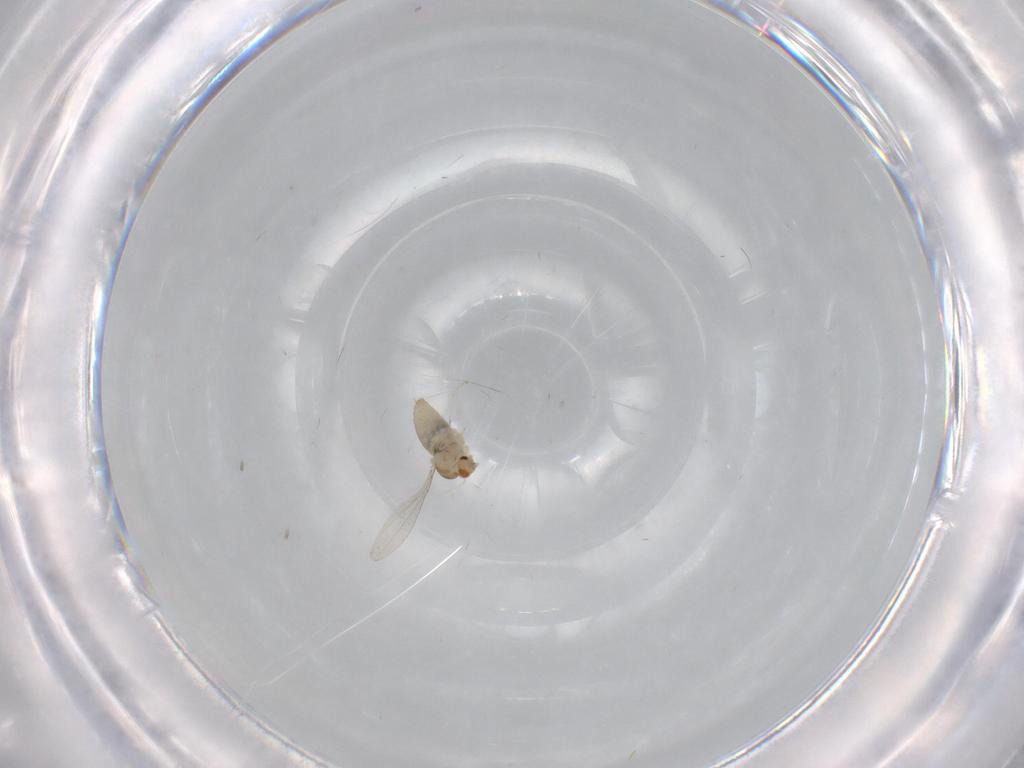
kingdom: Animalia
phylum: Arthropoda
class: Insecta
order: Diptera
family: Cecidomyiidae
